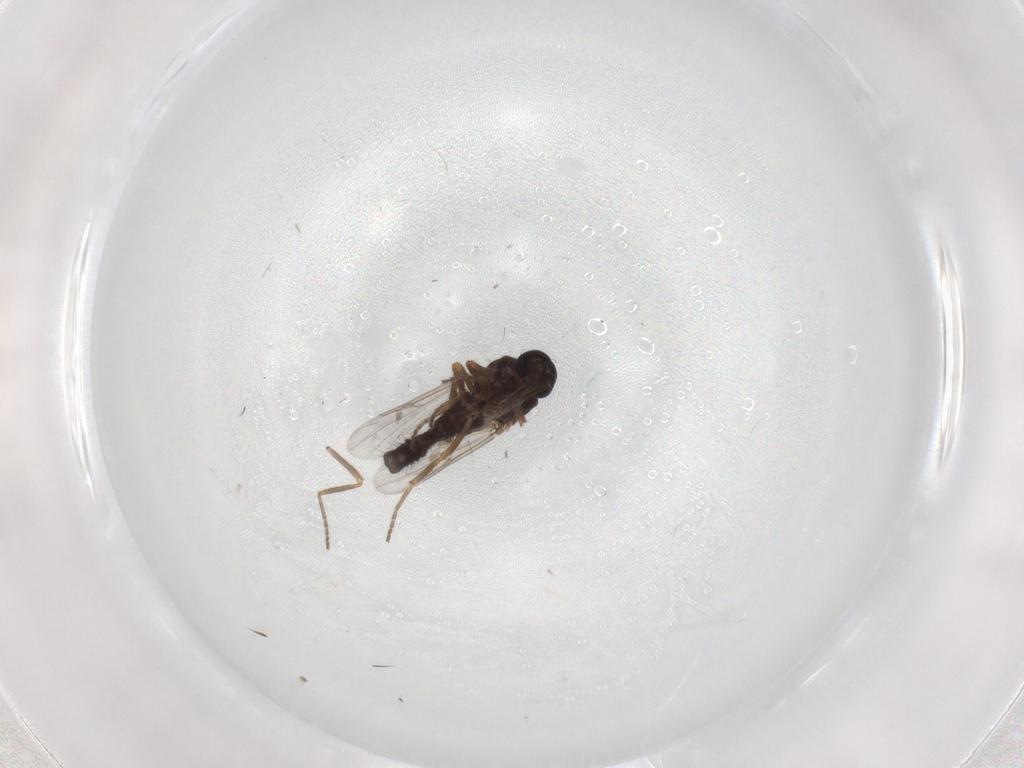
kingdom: Animalia
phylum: Arthropoda
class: Insecta
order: Diptera
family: Ceratopogonidae
